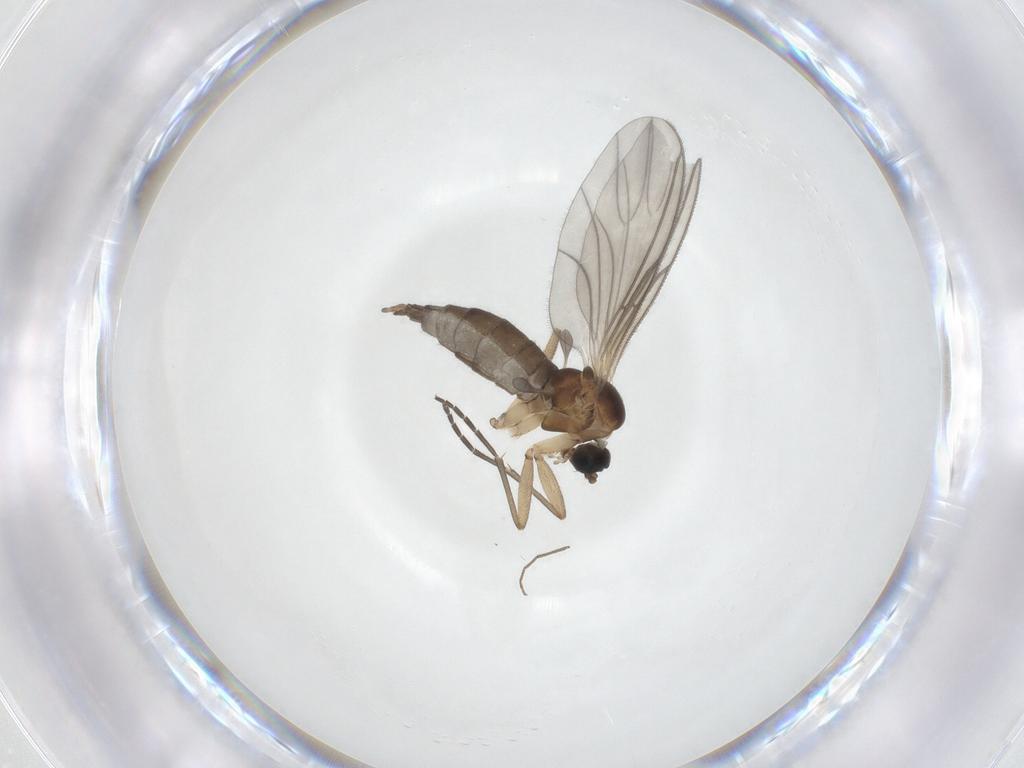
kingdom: Animalia
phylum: Arthropoda
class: Insecta
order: Diptera
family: Sciaridae
